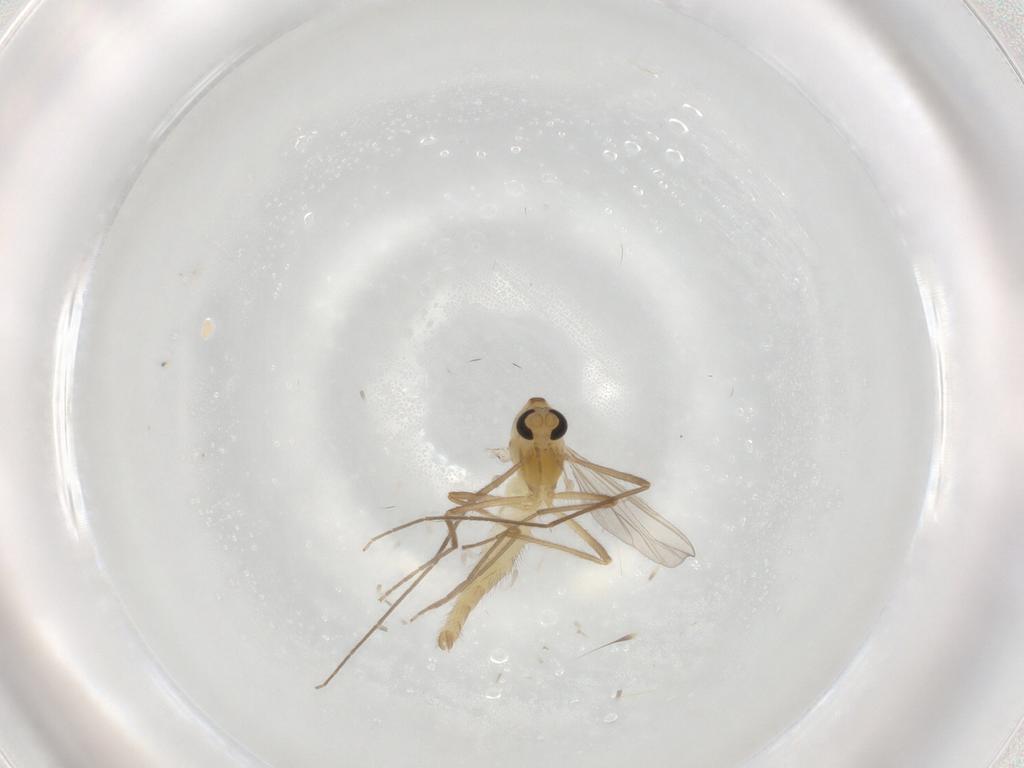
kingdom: Animalia
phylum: Arthropoda
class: Insecta
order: Diptera
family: Chironomidae
